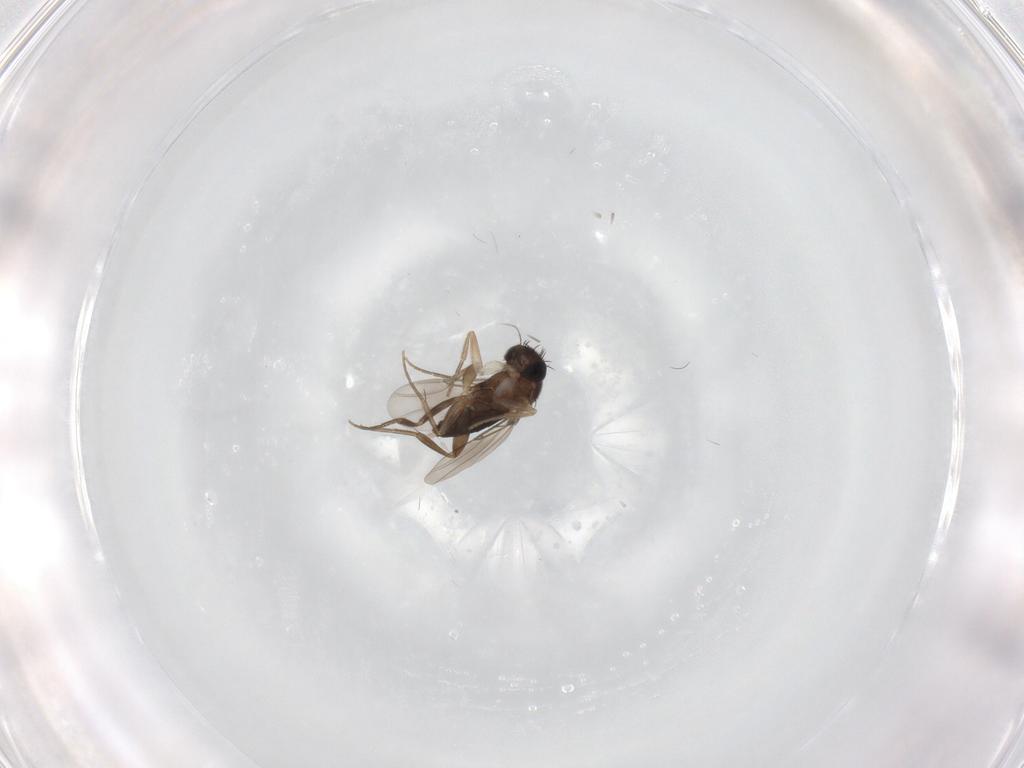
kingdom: Animalia
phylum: Arthropoda
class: Insecta
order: Diptera
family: Phoridae
